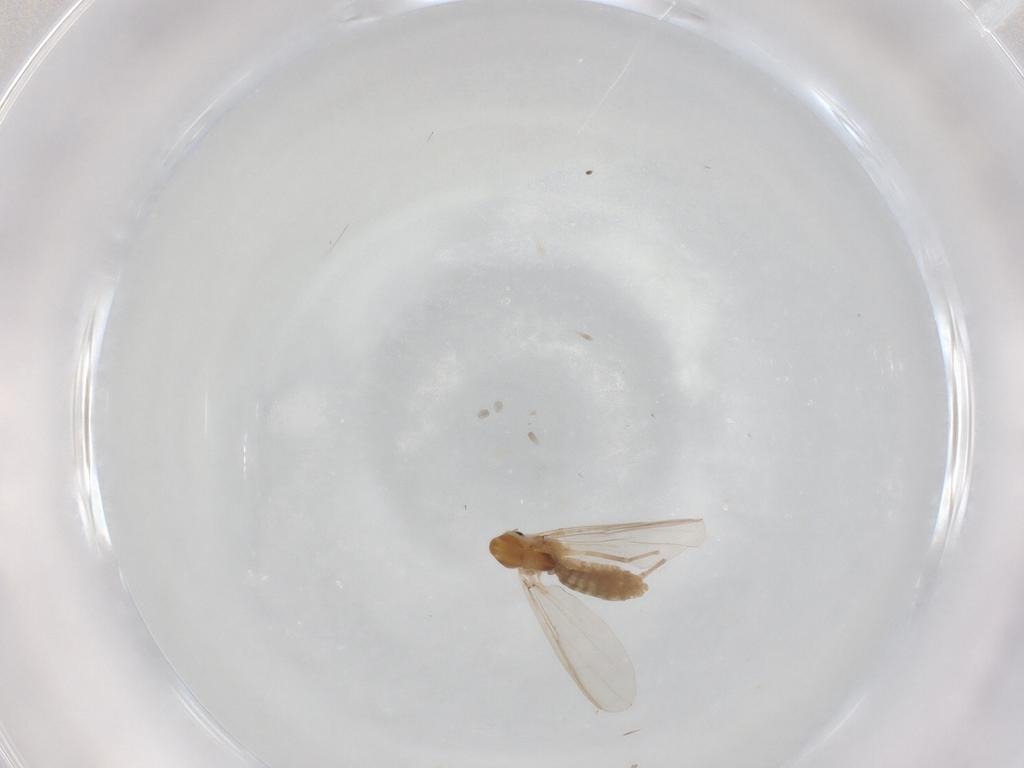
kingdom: Animalia
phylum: Arthropoda
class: Insecta
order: Diptera
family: Chironomidae
